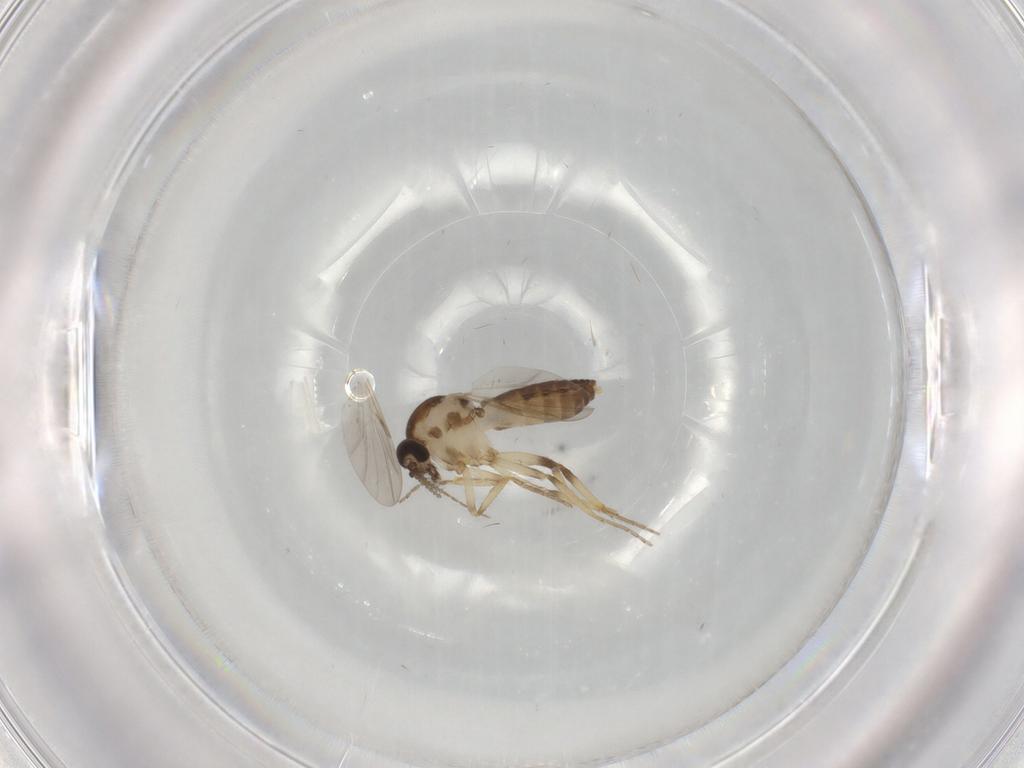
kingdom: Animalia
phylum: Arthropoda
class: Insecta
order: Diptera
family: Ceratopogonidae
